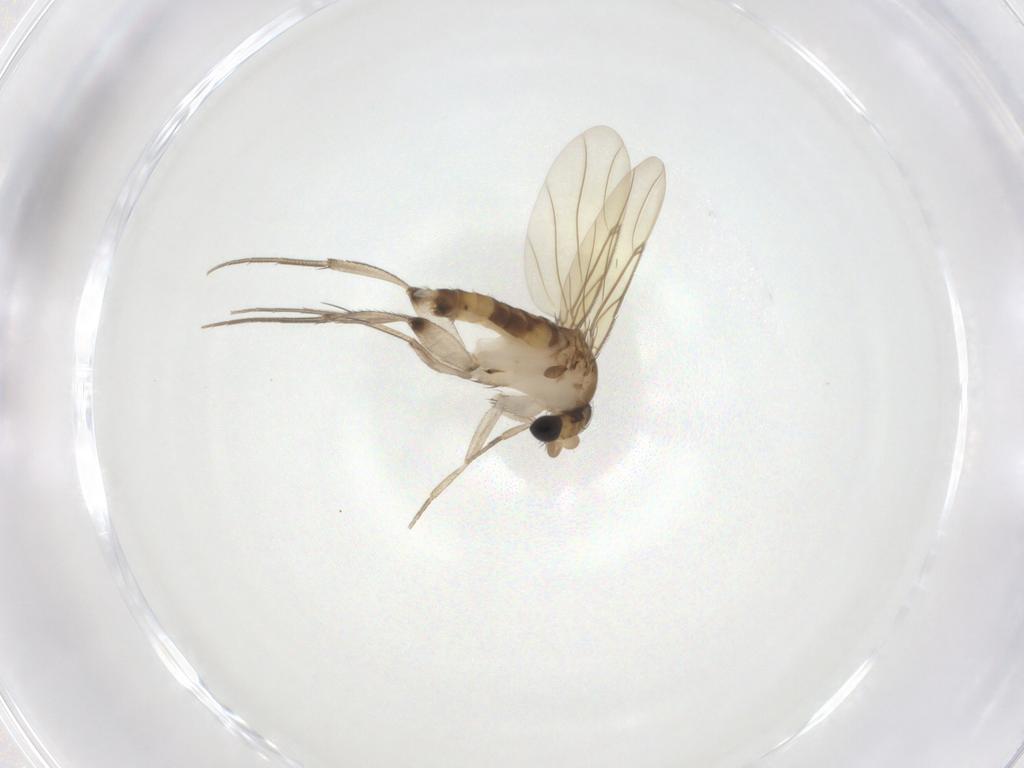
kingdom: Animalia
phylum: Arthropoda
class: Insecta
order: Diptera
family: Phoridae
